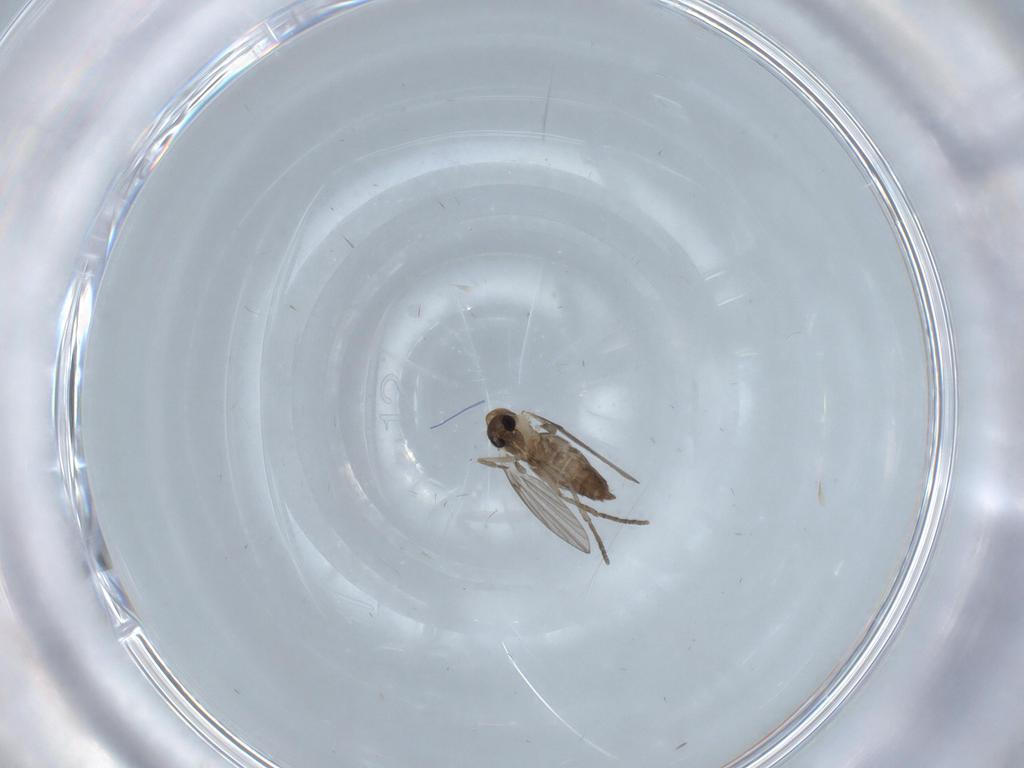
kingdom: Animalia
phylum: Arthropoda
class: Insecta
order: Diptera
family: Psychodidae
